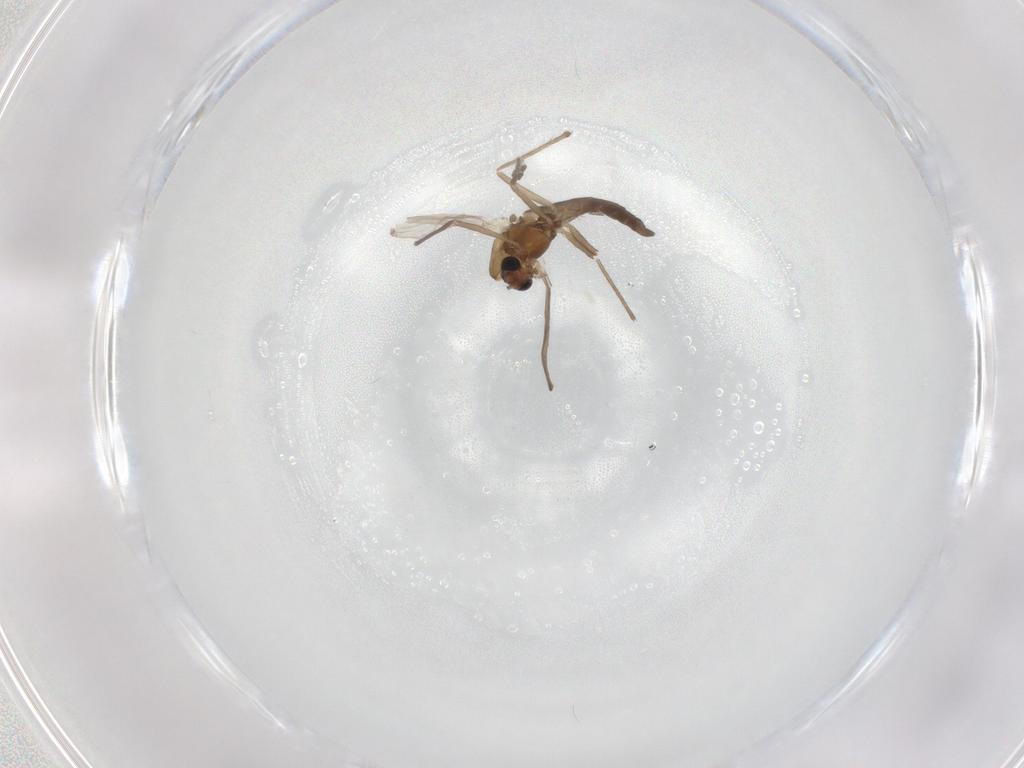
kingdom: Animalia
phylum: Arthropoda
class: Insecta
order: Diptera
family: Chironomidae
